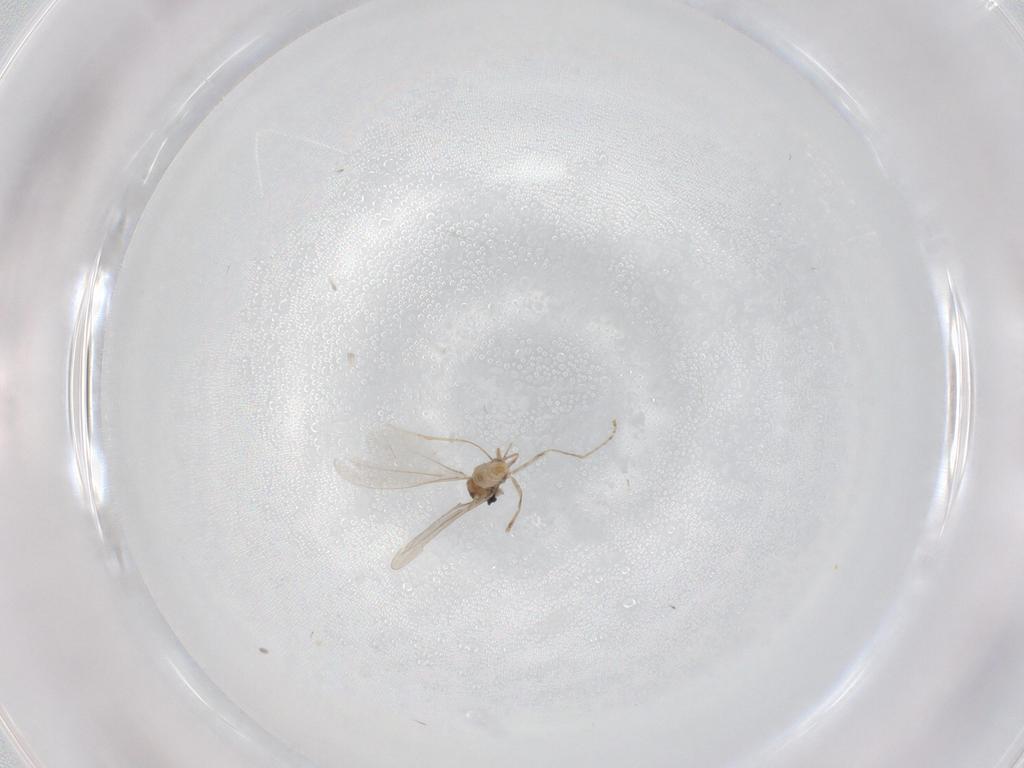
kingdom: Animalia
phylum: Arthropoda
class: Insecta
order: Diptera
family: Cecidomyiidae
